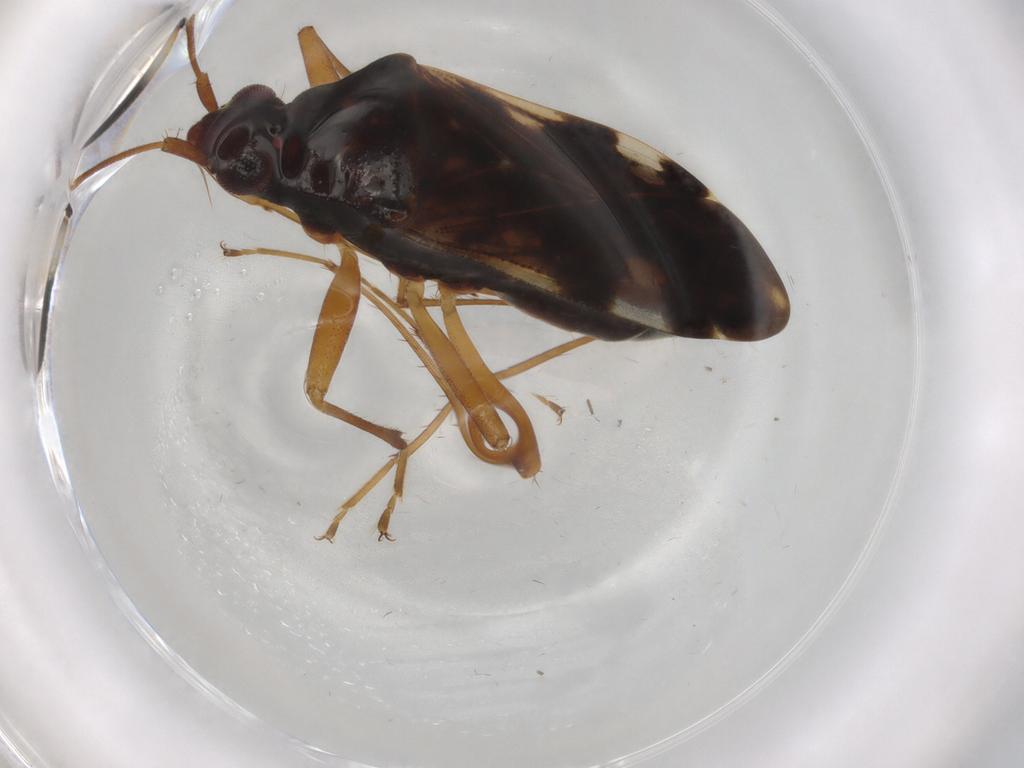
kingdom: Animalia
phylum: Arthropoda
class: Insecta
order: Hemiptera
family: Rhyparochromidae
